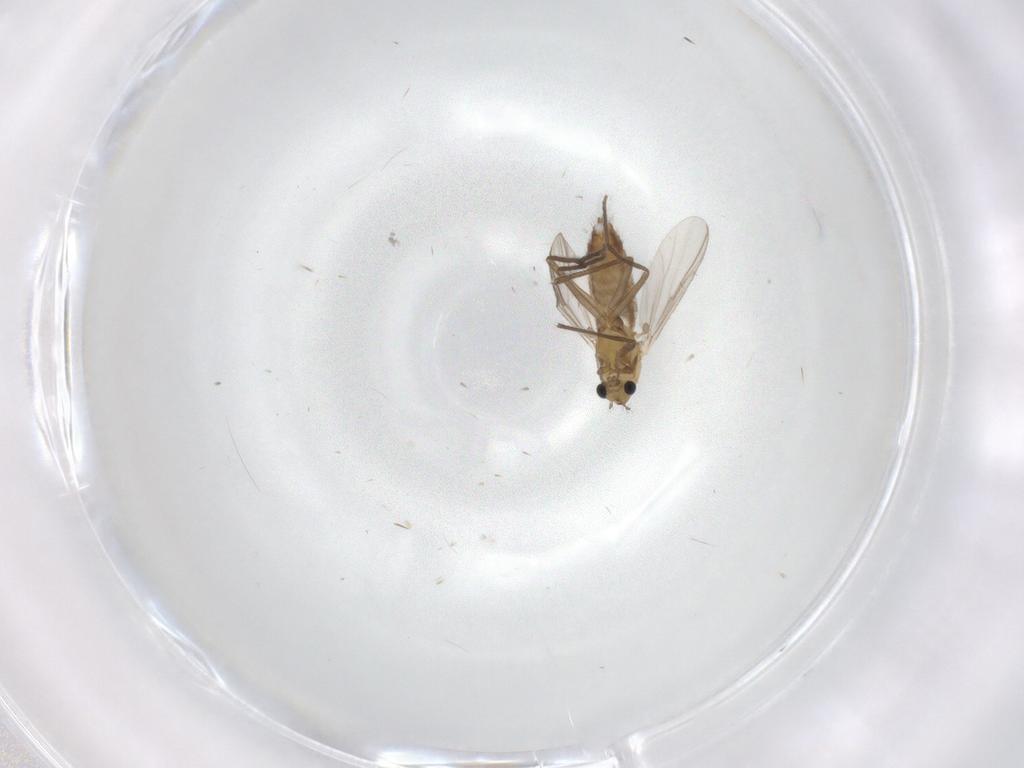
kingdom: Animalia
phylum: Arthropoda
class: Insecta
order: Diptera
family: Chironomidae
